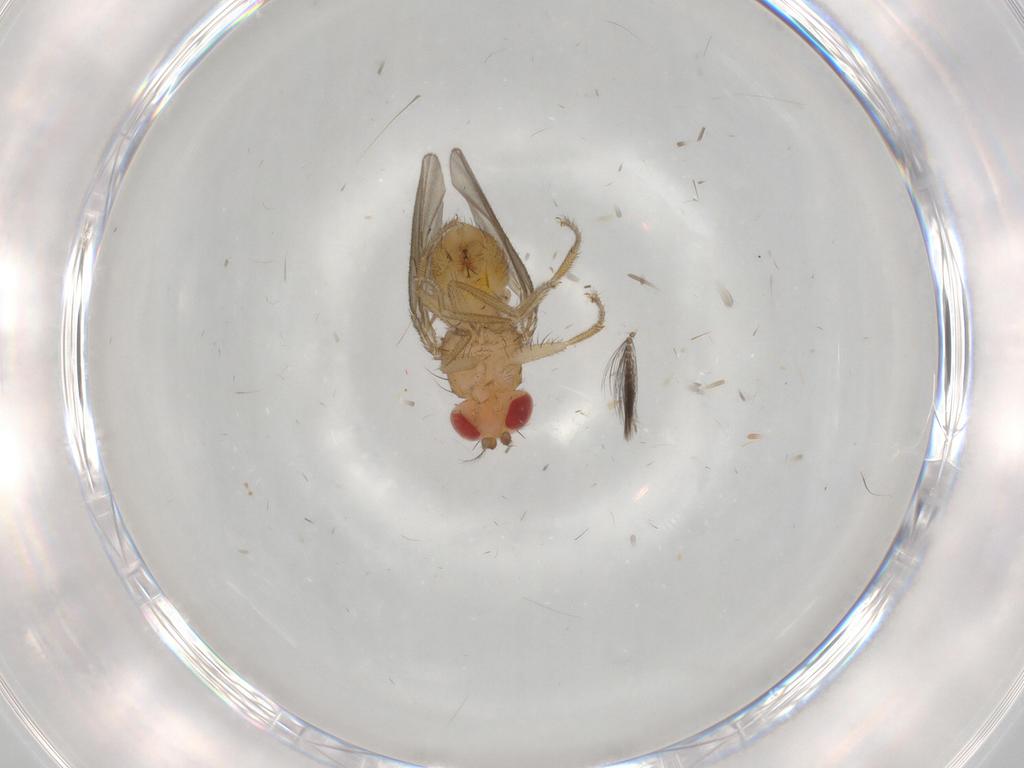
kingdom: Animalia
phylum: Arthropoda
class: Insecta
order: Diptera
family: Drosophilidae
